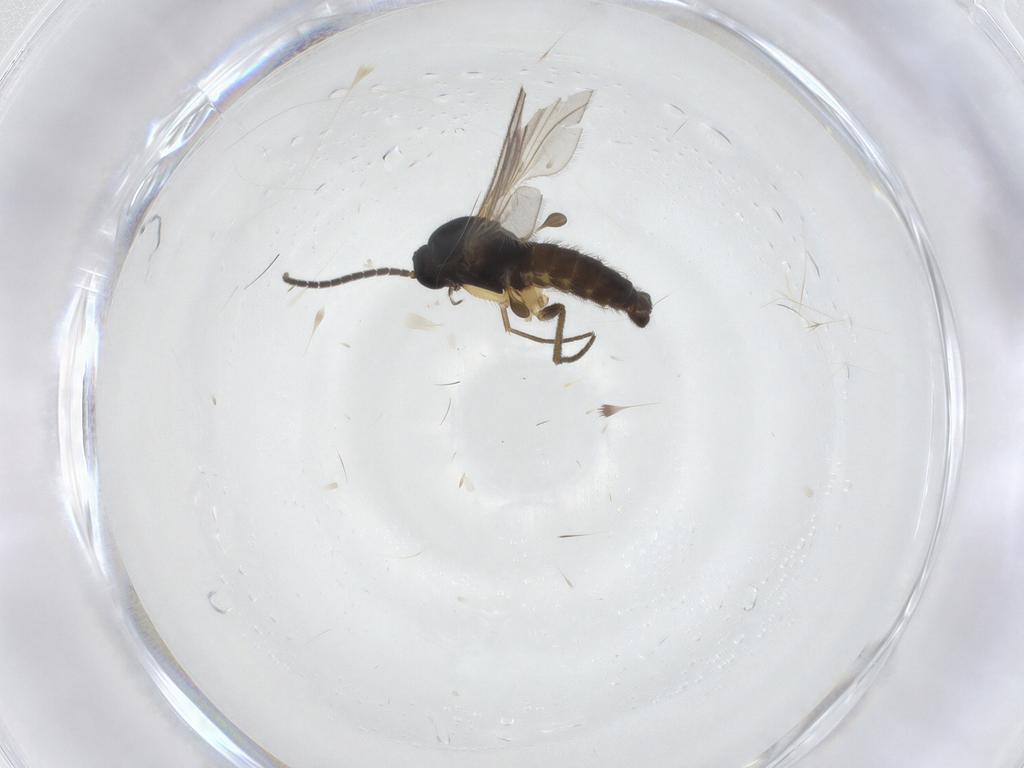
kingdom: Animalia
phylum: Arthropoda
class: Insecta
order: Diptera
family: Sciaridae
